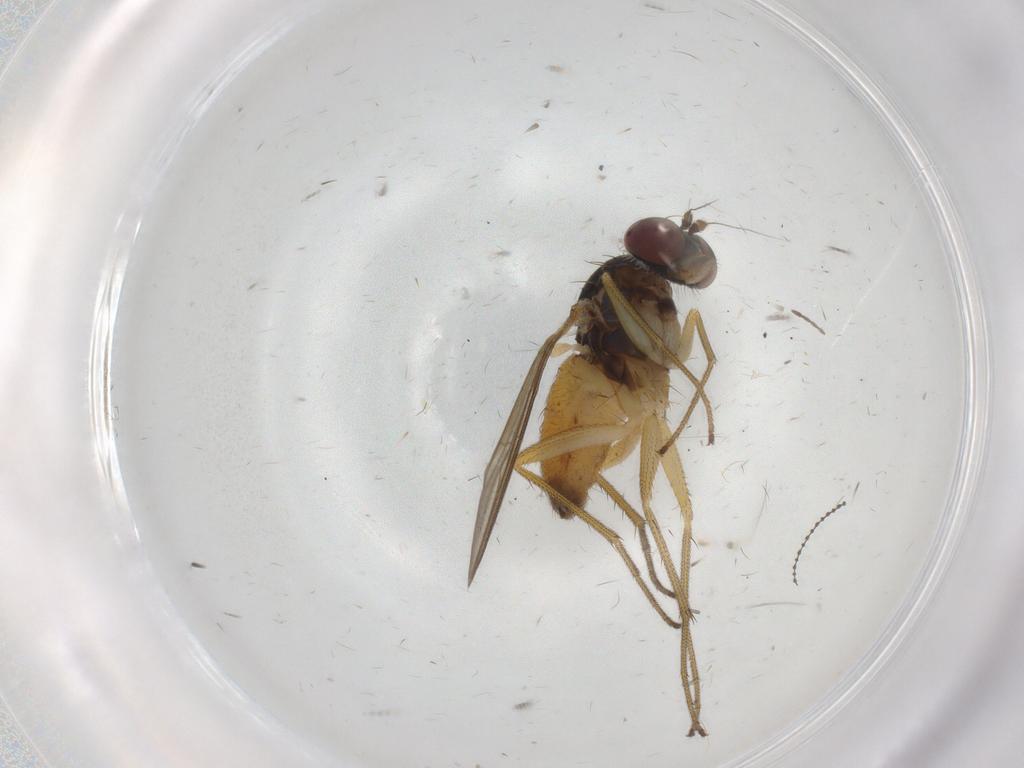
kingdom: Animalia
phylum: Arthropoda
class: Insecta
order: Diptera
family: Dolichopodidae
